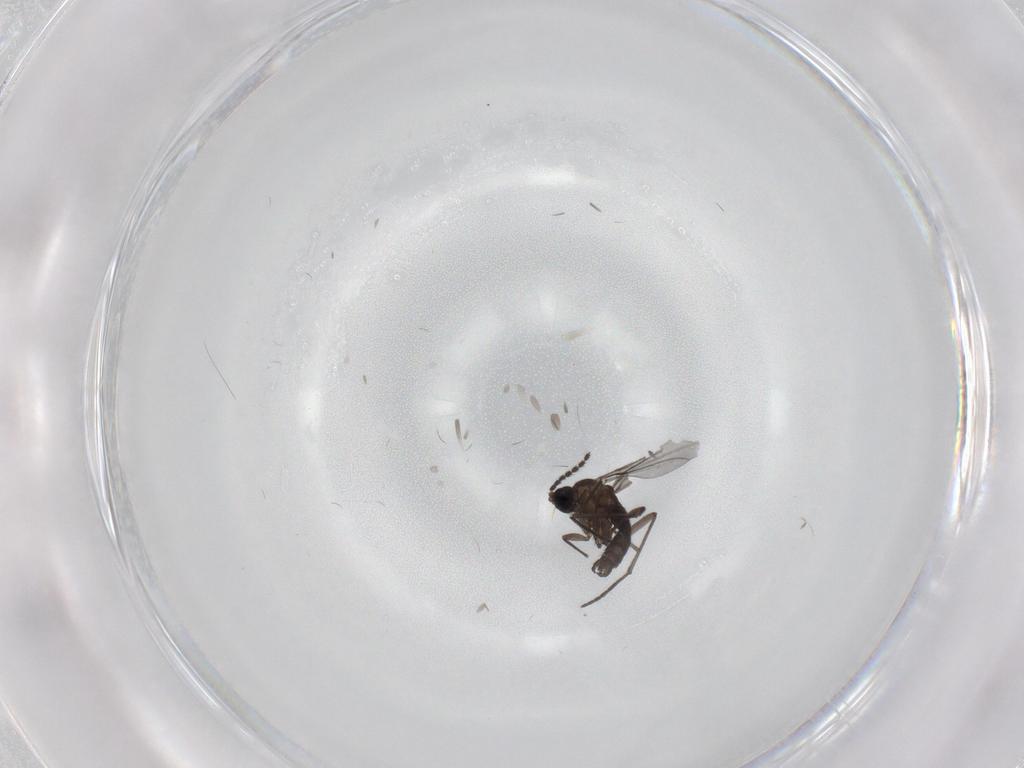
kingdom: Animalia
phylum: Arthropoda
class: Insecta
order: Diptera
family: Sciaridae
